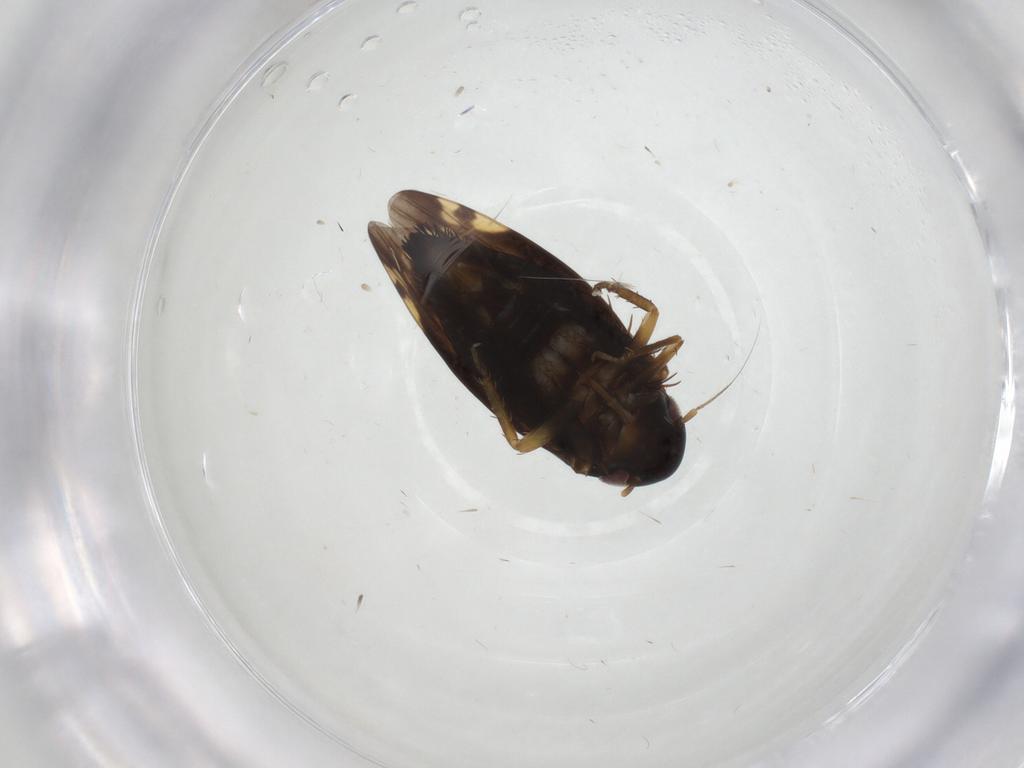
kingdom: Animalia
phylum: Arthropoda
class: Insecta
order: Hemiptera
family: Cicadellidae
